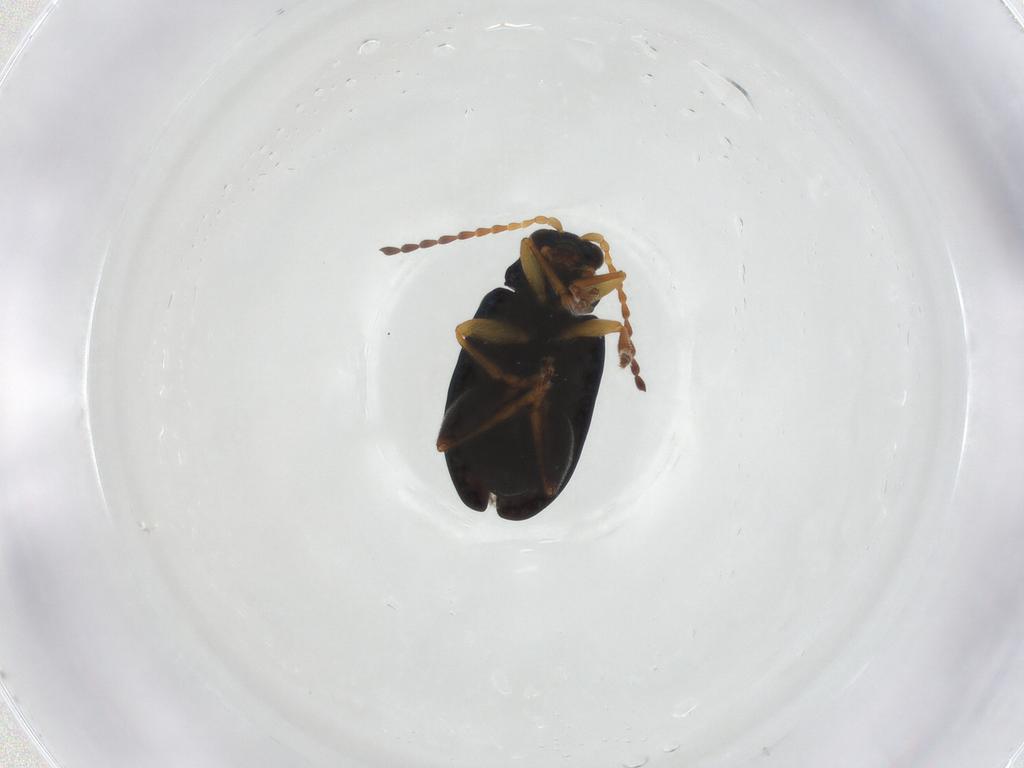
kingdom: Animalia
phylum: Arthropoda
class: Insecta
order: Coleoptera
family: Chrysomelidae
